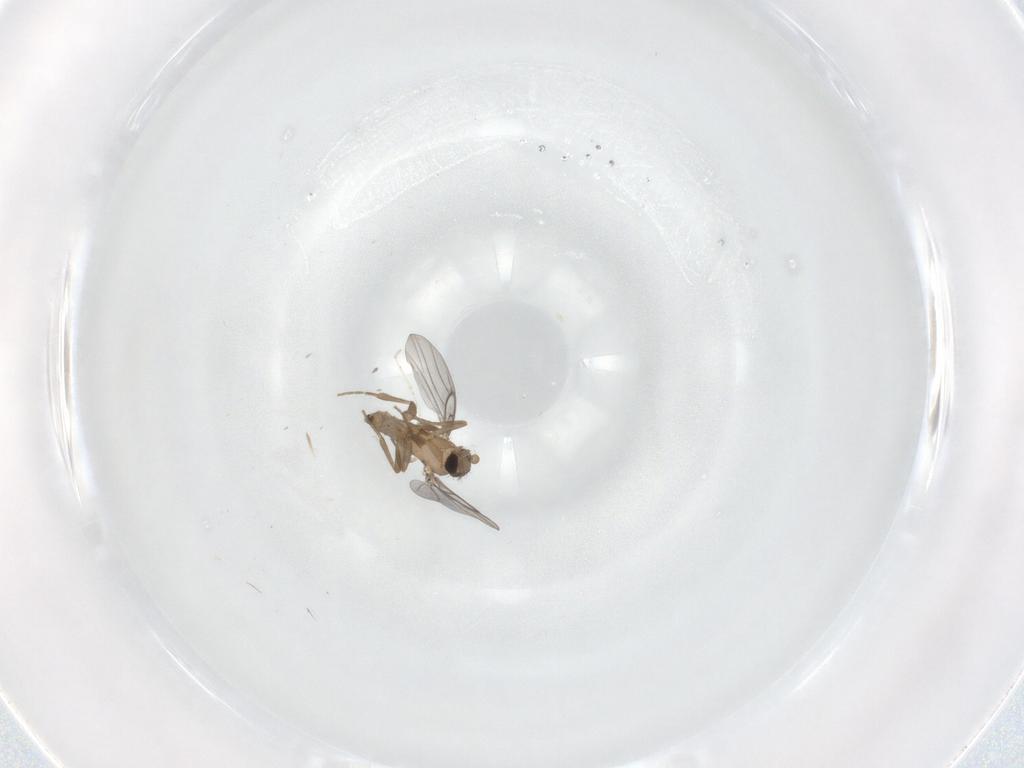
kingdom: Animalia
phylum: Arthropoda
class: Insecta
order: Diptera
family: Cecidomyiidae
